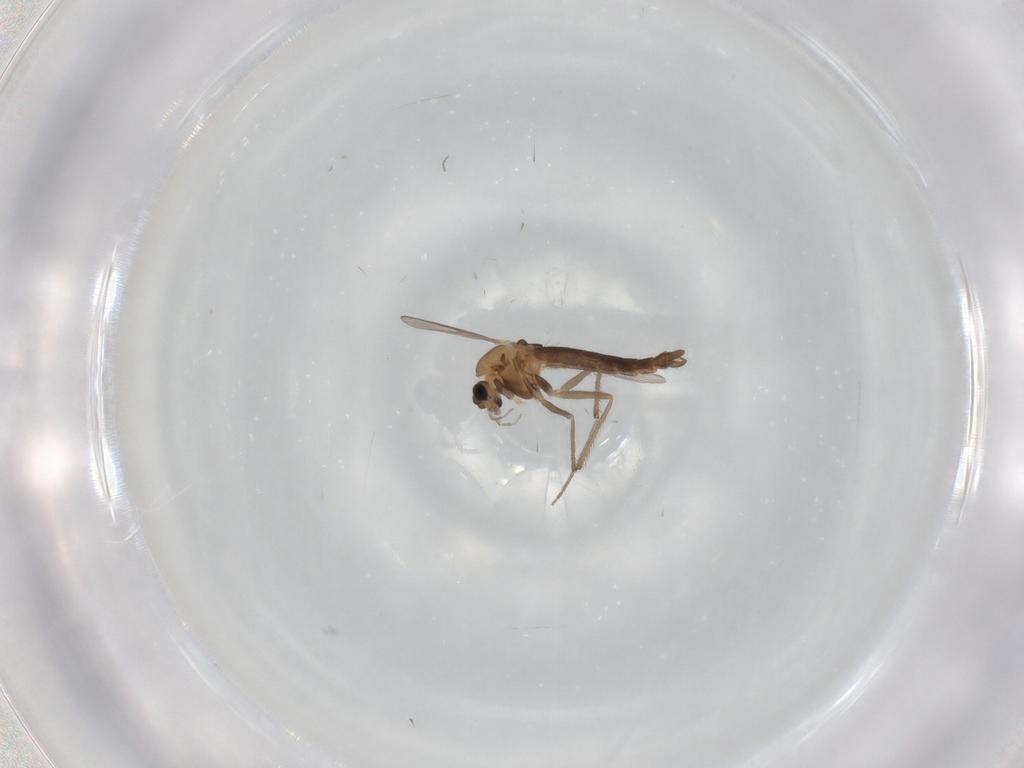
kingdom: Animalia
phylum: Arthropoda
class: Insecta
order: Diptera
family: Chironomidae
